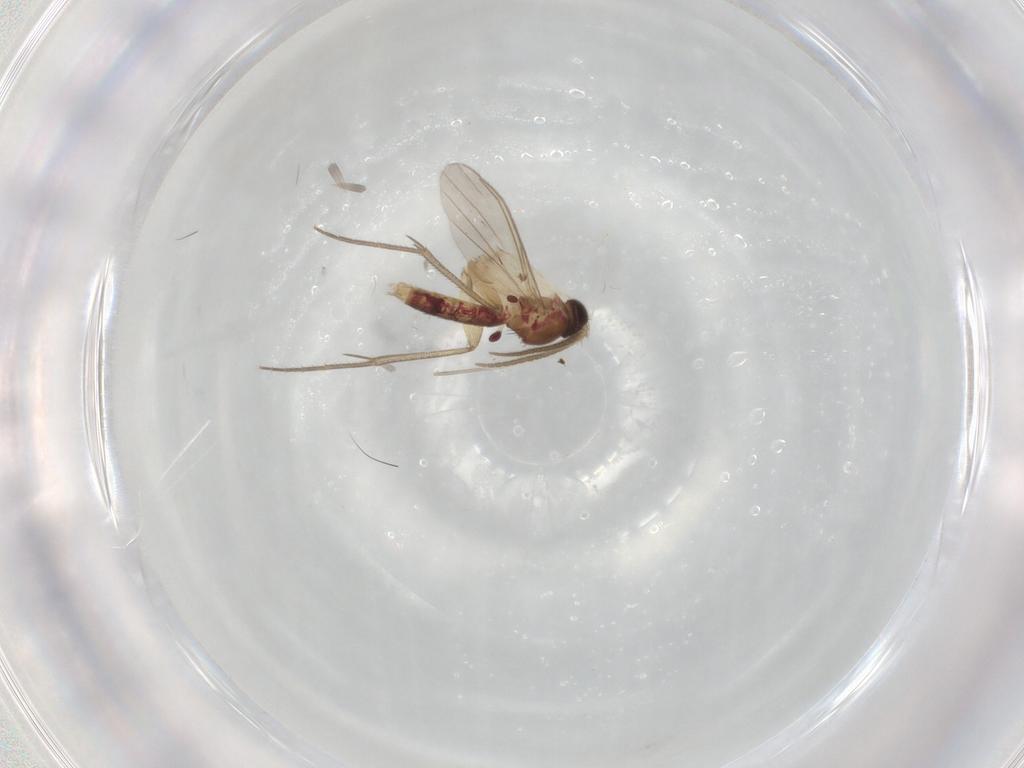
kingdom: Animalia
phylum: Arthropoda
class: Insecta
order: Diptera
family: Mycetophilidae
